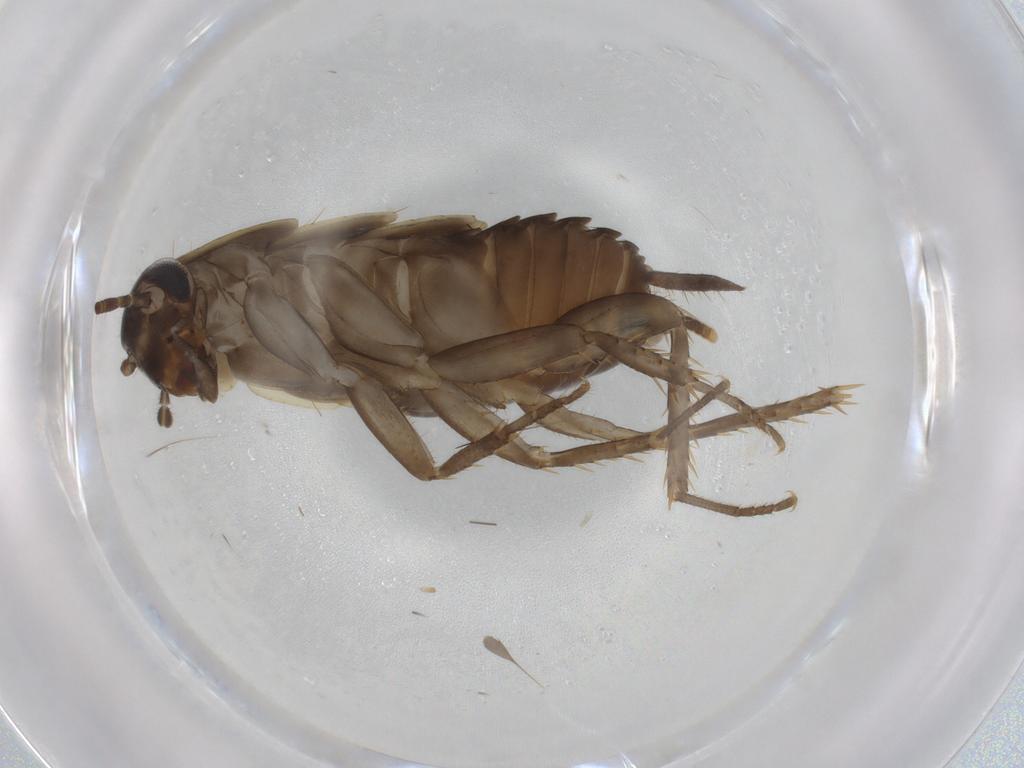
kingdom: Animalia
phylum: Arthropoda
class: Insecta
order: Blattodea
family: Ectobiidae
